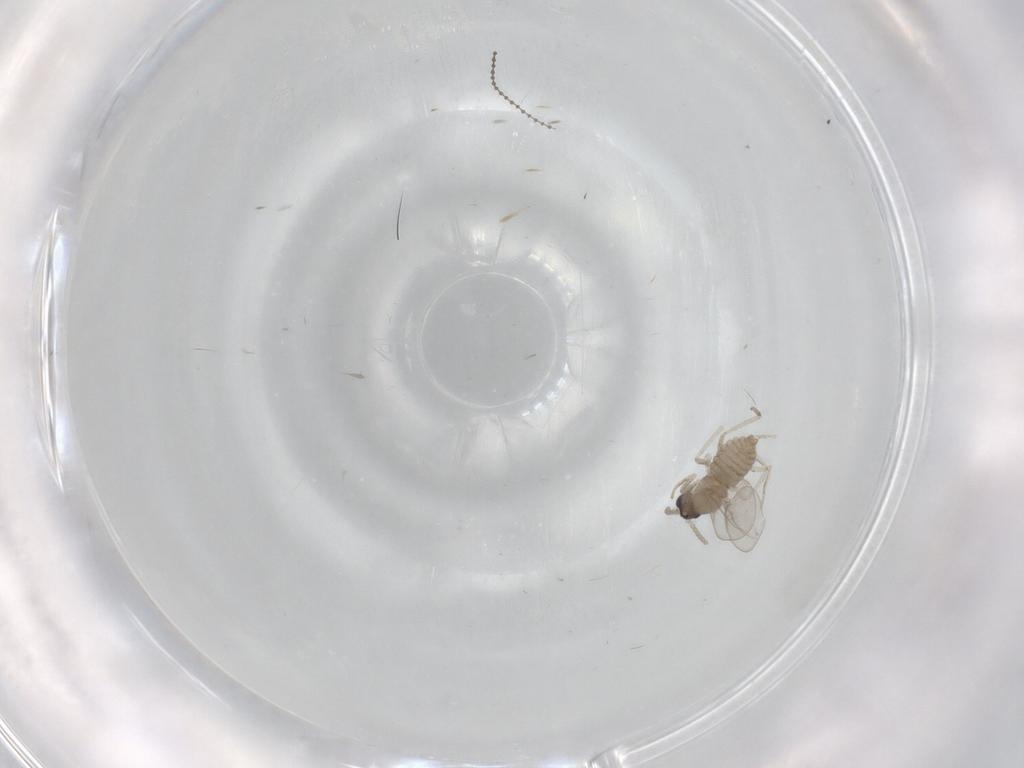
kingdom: Animalia
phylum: Arthropoda
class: Insecta
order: Diptera
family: Cecidomyiidae
